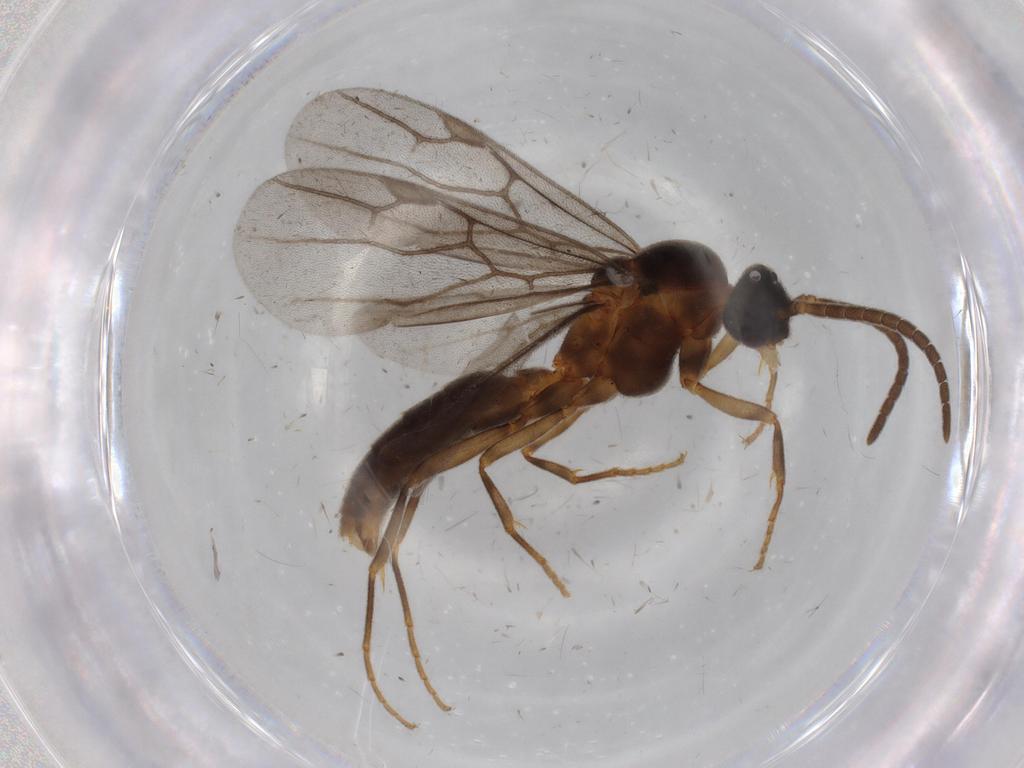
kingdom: Animalia
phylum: Arthropoda
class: Insecta
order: Hymenoptera
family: Formicidae
